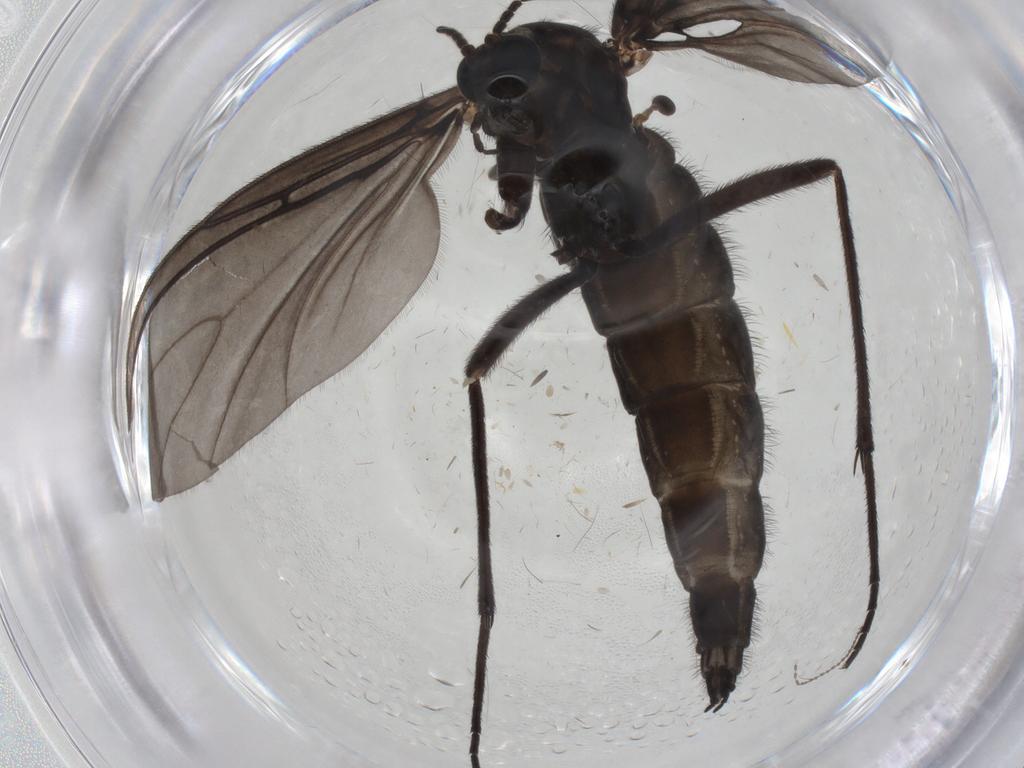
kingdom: Animalia
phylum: Arthropoda
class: Insecta
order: Diptera
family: Sciaridae
